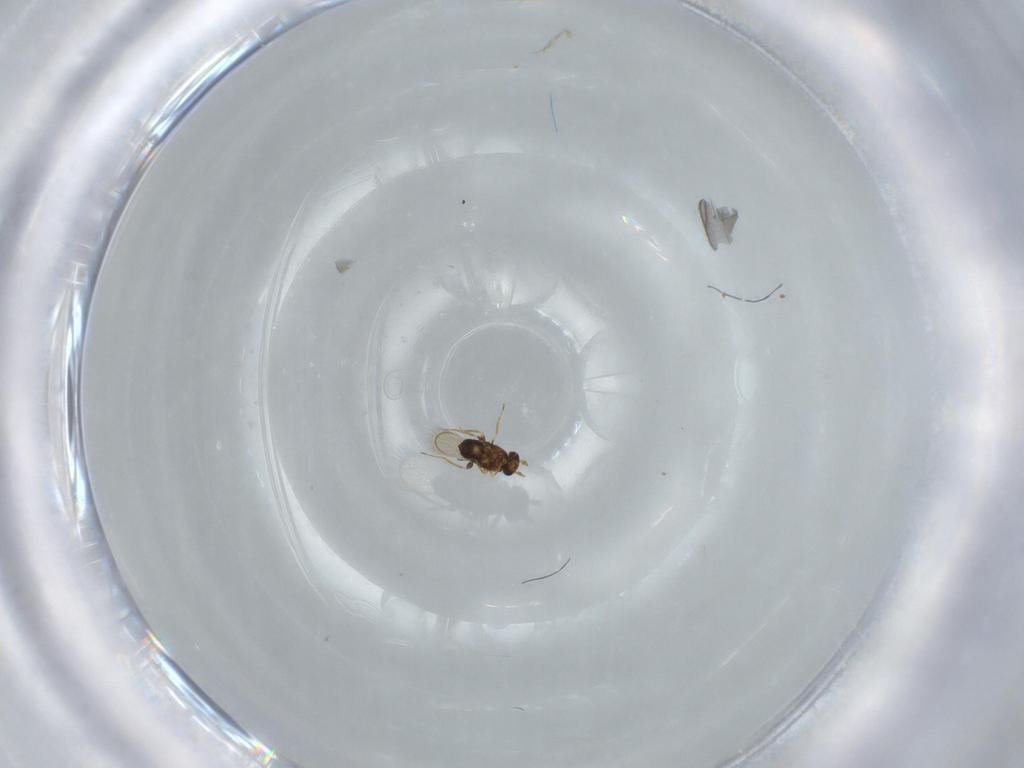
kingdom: Animalia
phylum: Arthropoda
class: Insecta
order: Hymenoptera
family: Trichogrammatidae
